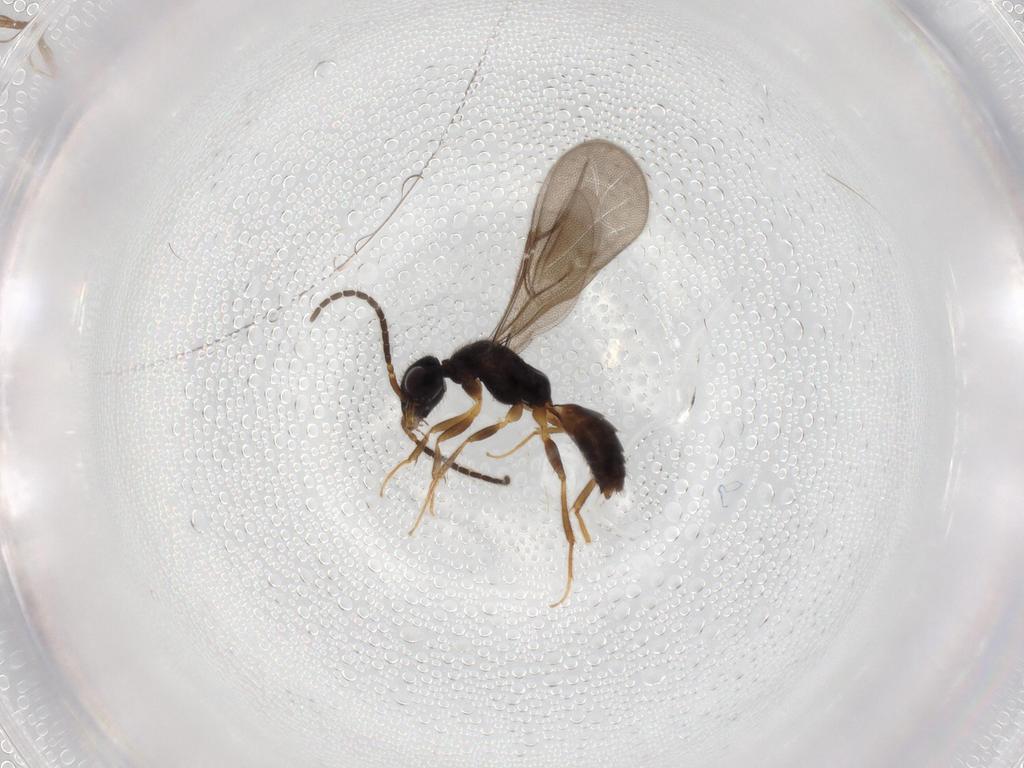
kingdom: Animalia
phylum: Arthropoda
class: Insecta
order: Hymenoptera
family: Bethylidae
